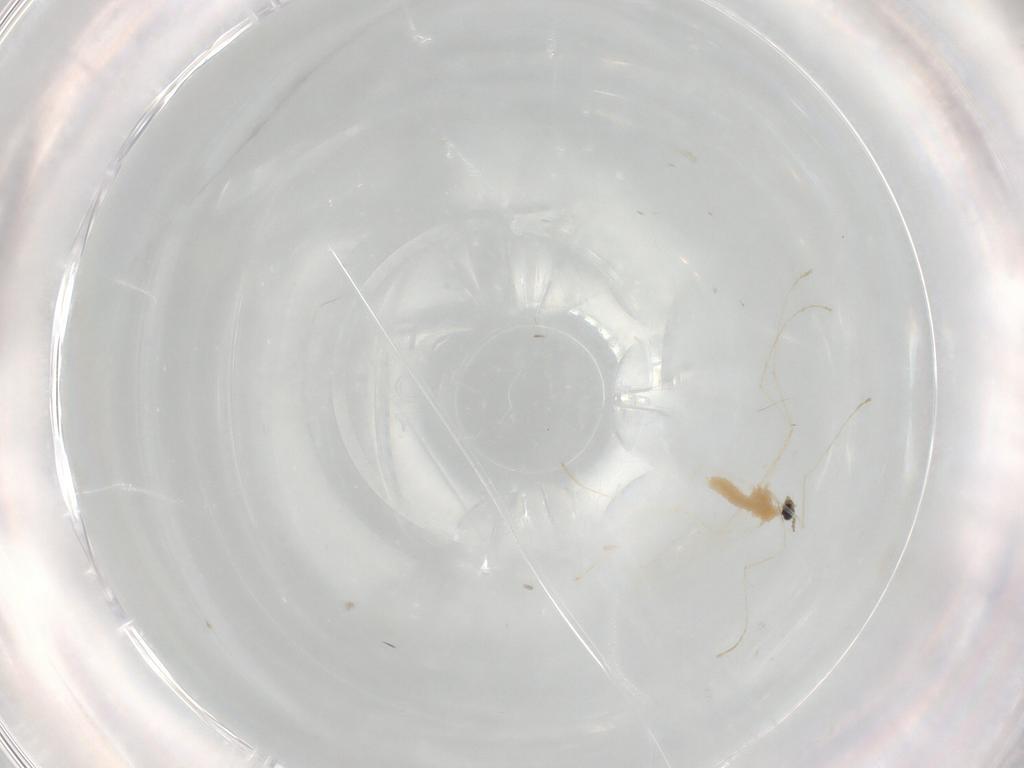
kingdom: Animalia
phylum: Arthropoda
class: Insecta
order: Diptera
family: Cecidomyiidae
